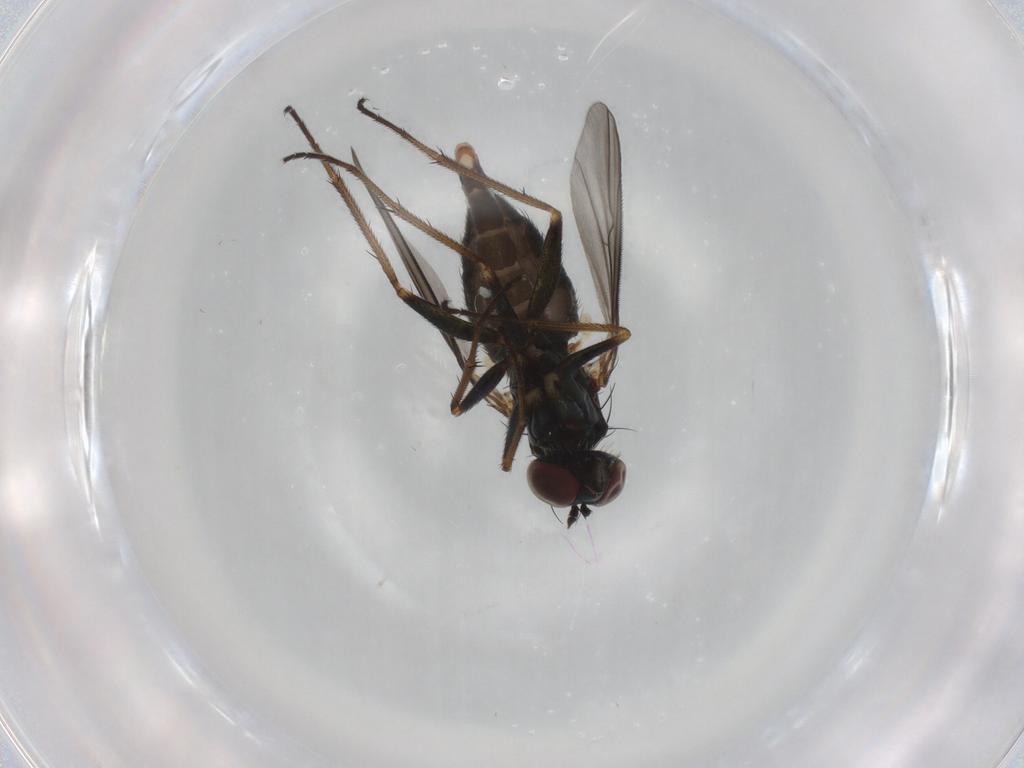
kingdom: Animalia
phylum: Arthropoda
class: Insecta
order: Diptera
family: Dolichopodidae
